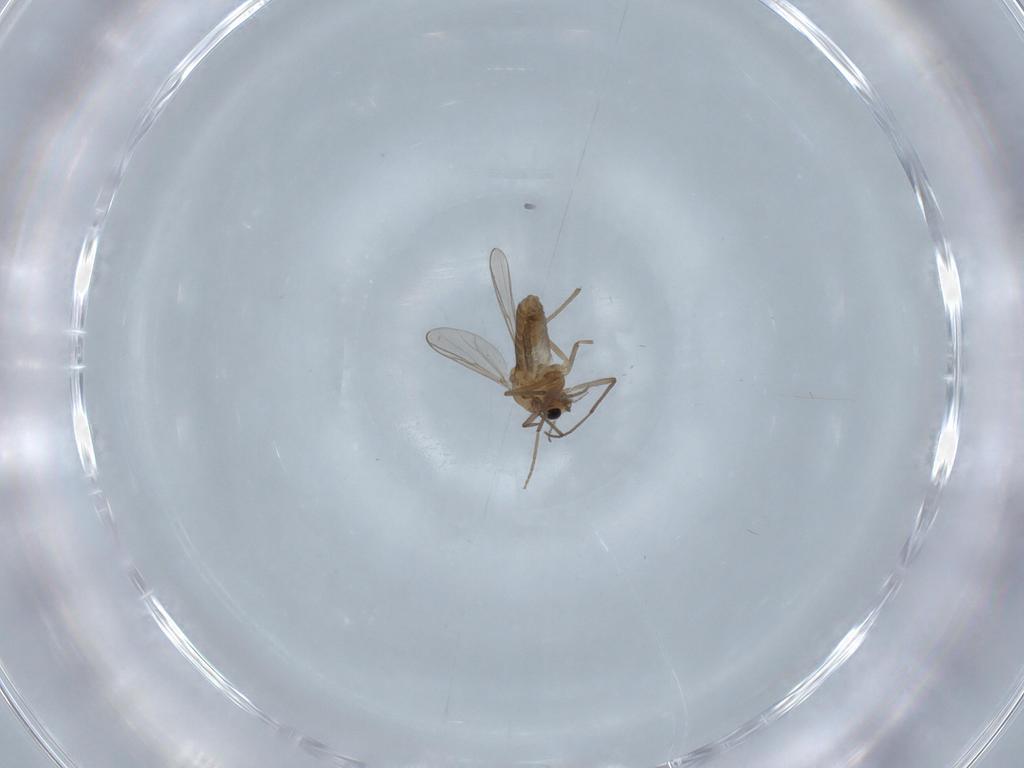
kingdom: Animalia
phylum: Arthropoda
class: Insecta
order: Diptera
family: Chironomidae
